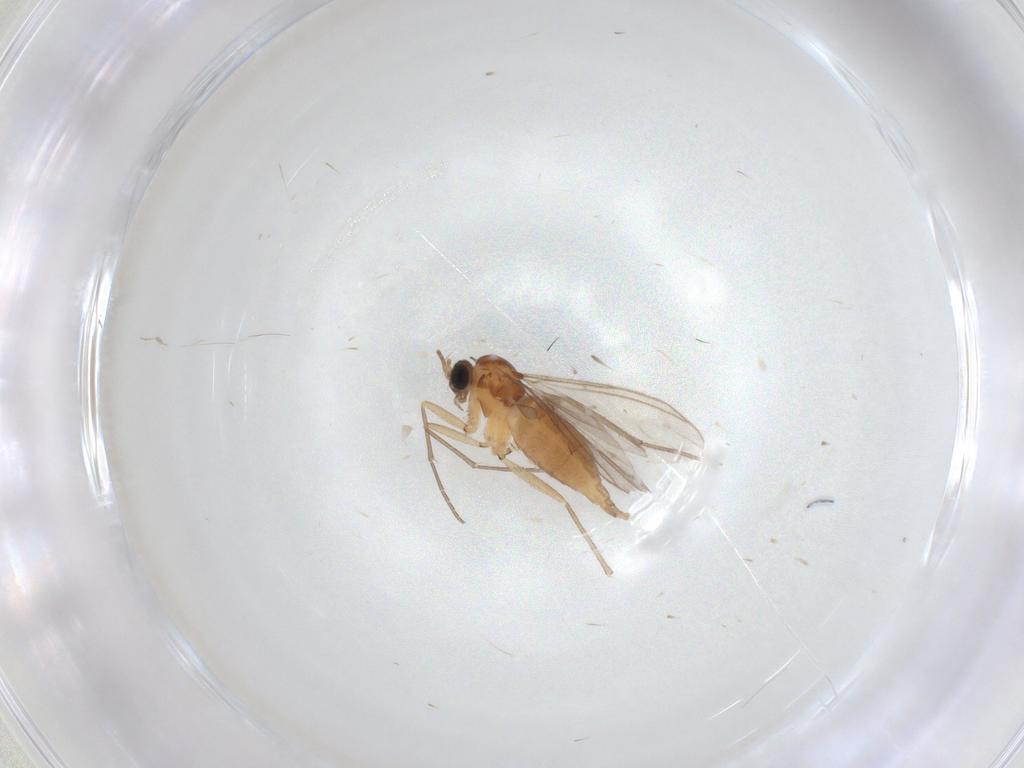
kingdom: Animalia
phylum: Arthropoda
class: Insecta
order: Diptera
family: Sciaridae
